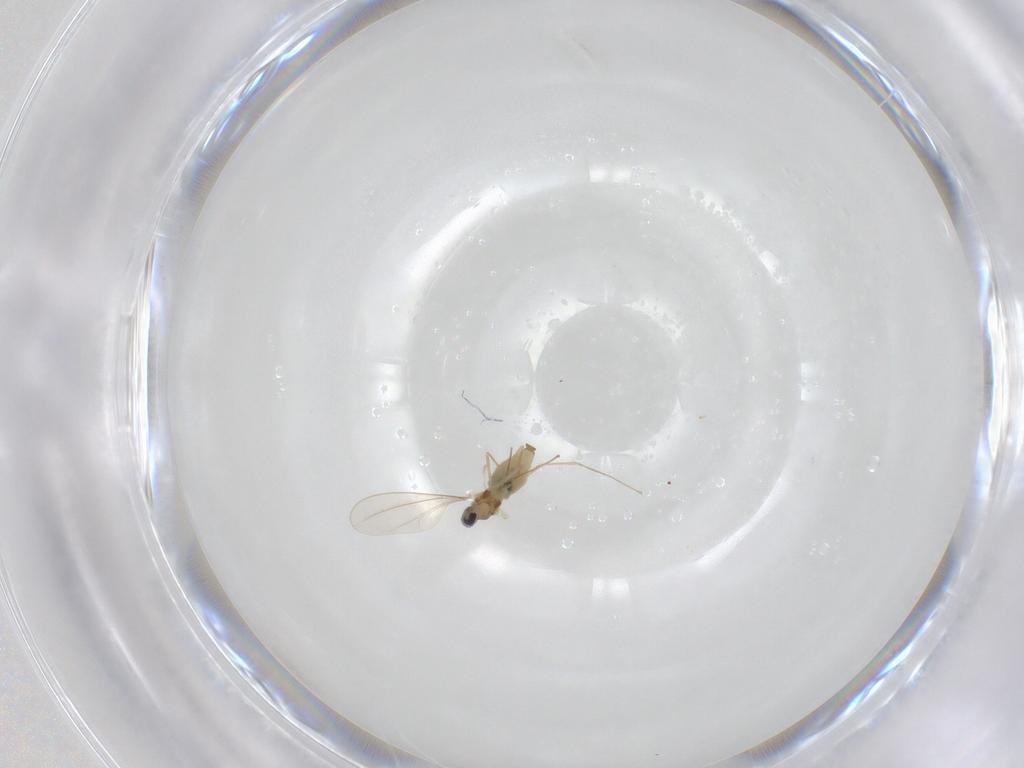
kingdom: Animalia
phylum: Arthropoda
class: Insecta
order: Diptera
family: Cecidomyiidae
